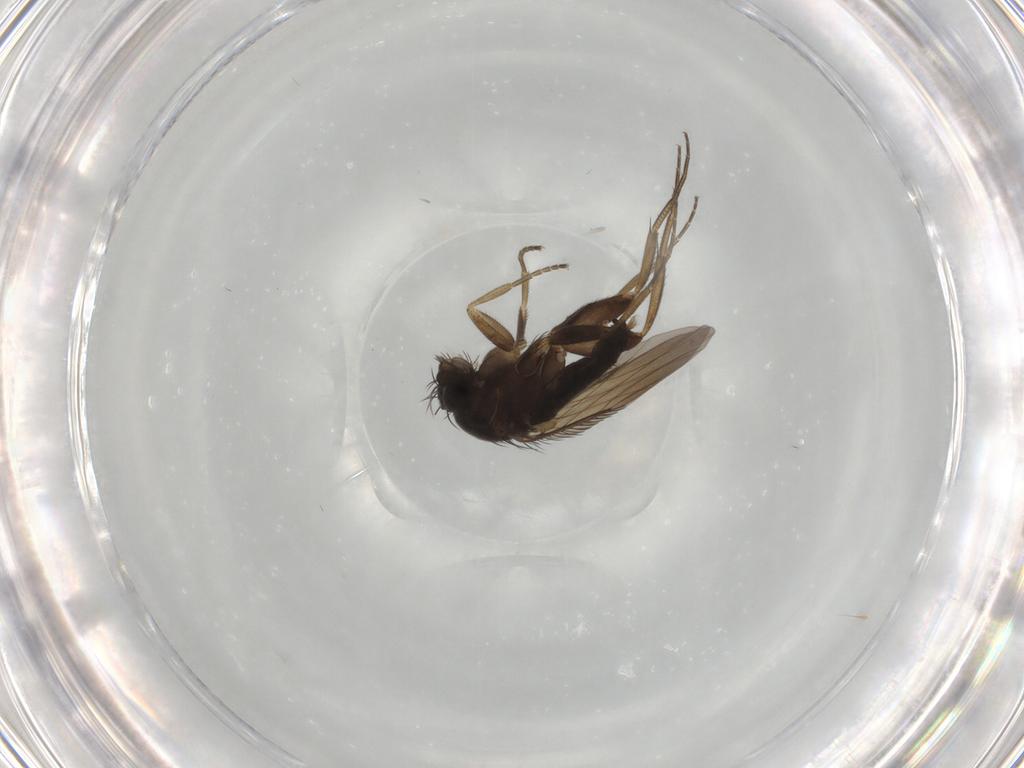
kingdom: Animalia
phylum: Arthropoda
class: Insecta
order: Diptera
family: Phoridae
